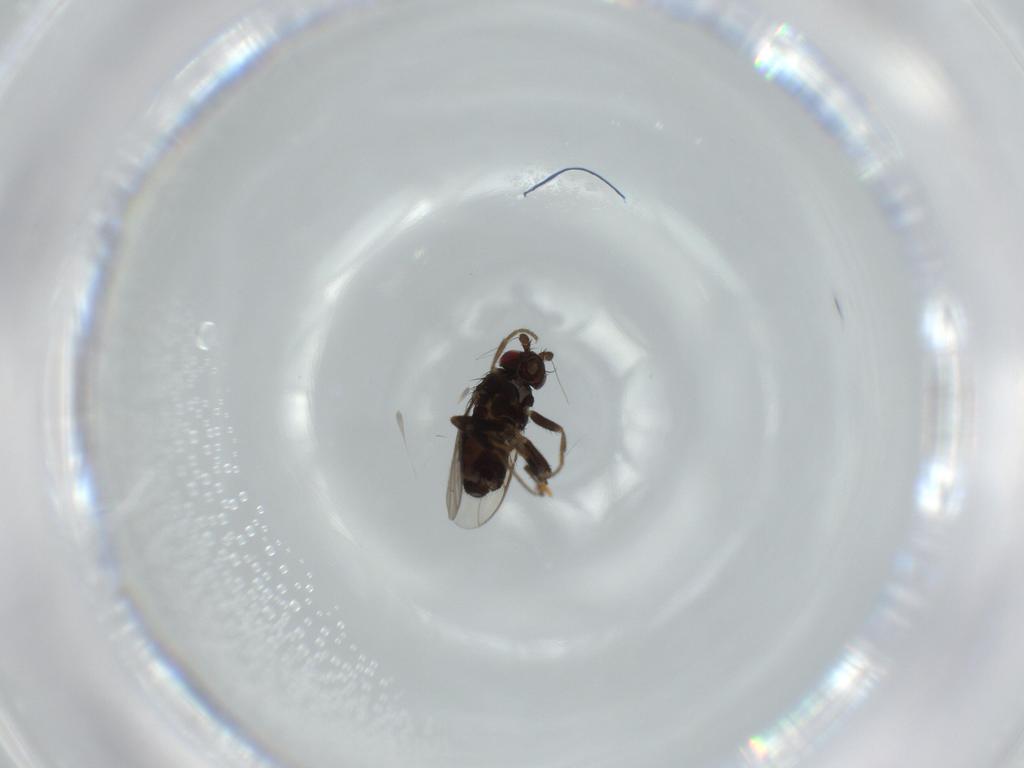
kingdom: Animalia
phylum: Arthropoda
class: Insecta
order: Diptera
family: Sphaeroceridae
